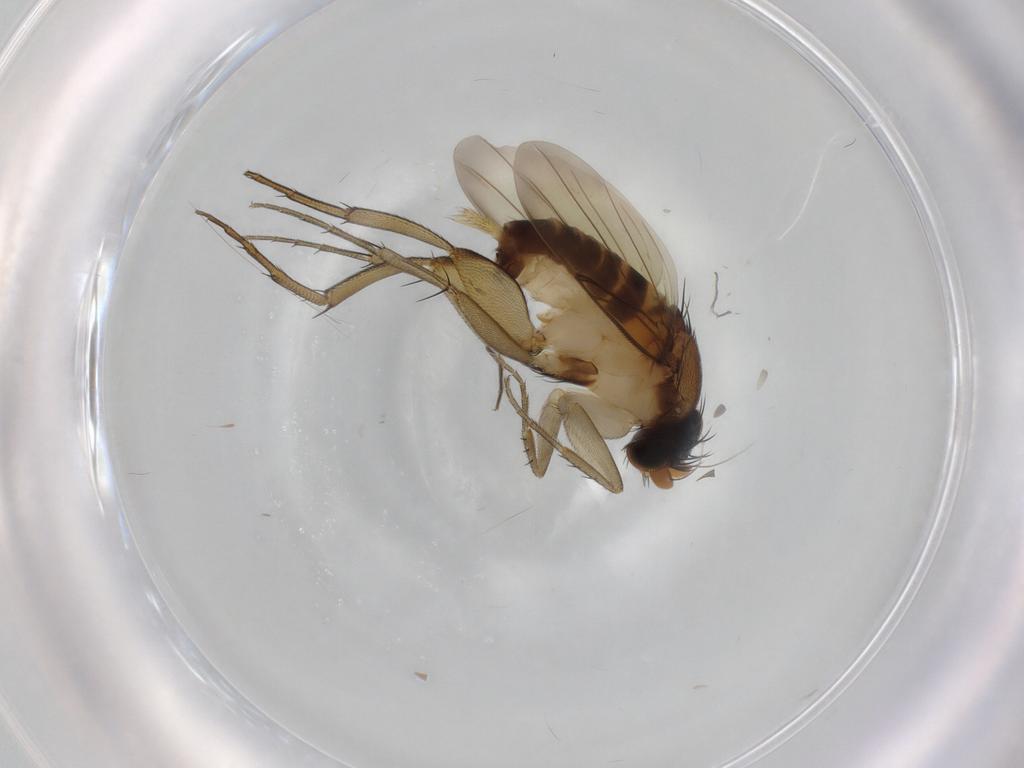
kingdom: Animalia
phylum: Arthropoda
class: Insecta
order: Diptera
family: Phoridae
